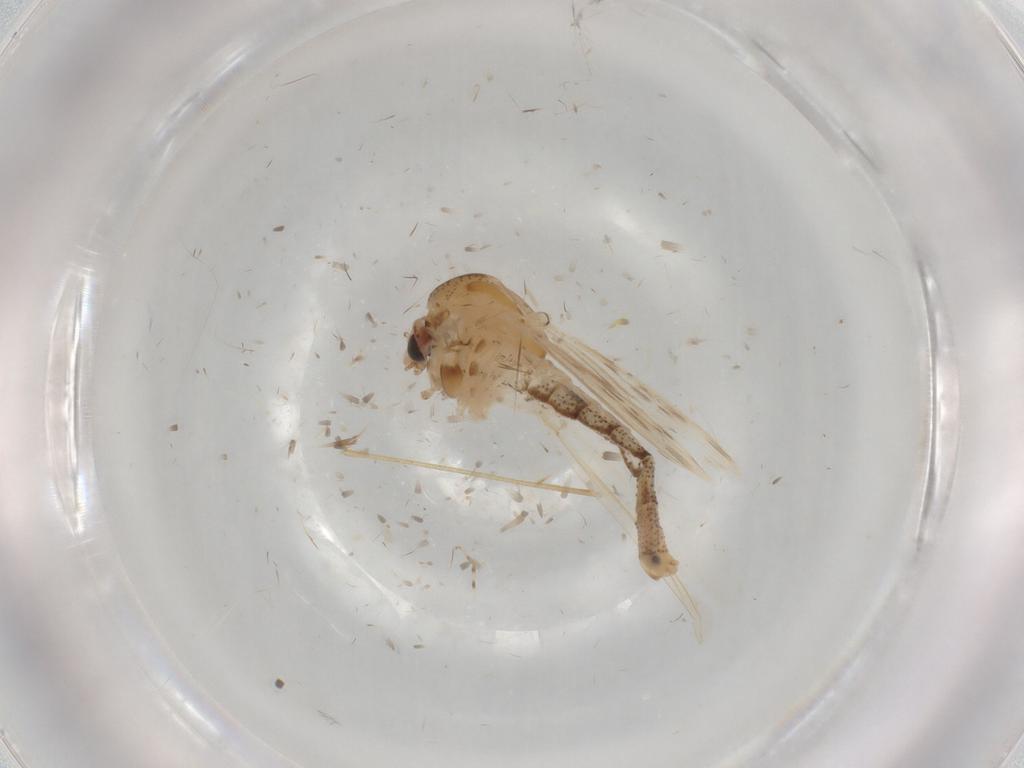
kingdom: Animalia
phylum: Arthropoda
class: Insecta
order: Diptera
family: Chaoboridae
